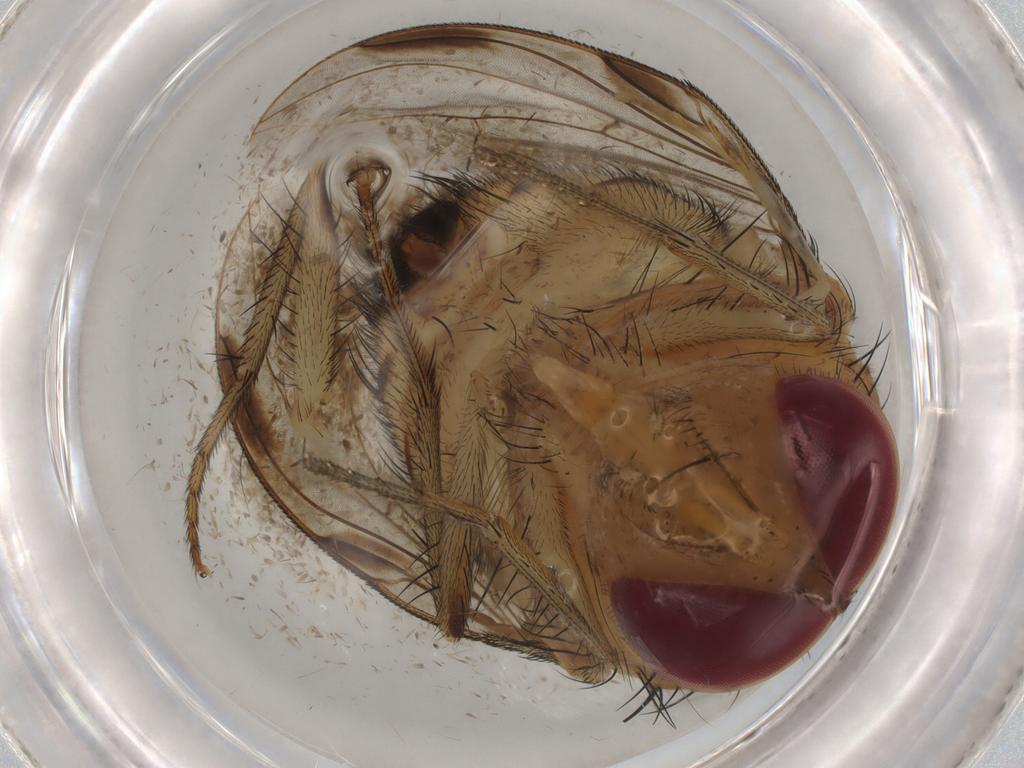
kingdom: Animalia
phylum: Arthropoda
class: Insecta
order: Diptera
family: Calliphoridae
